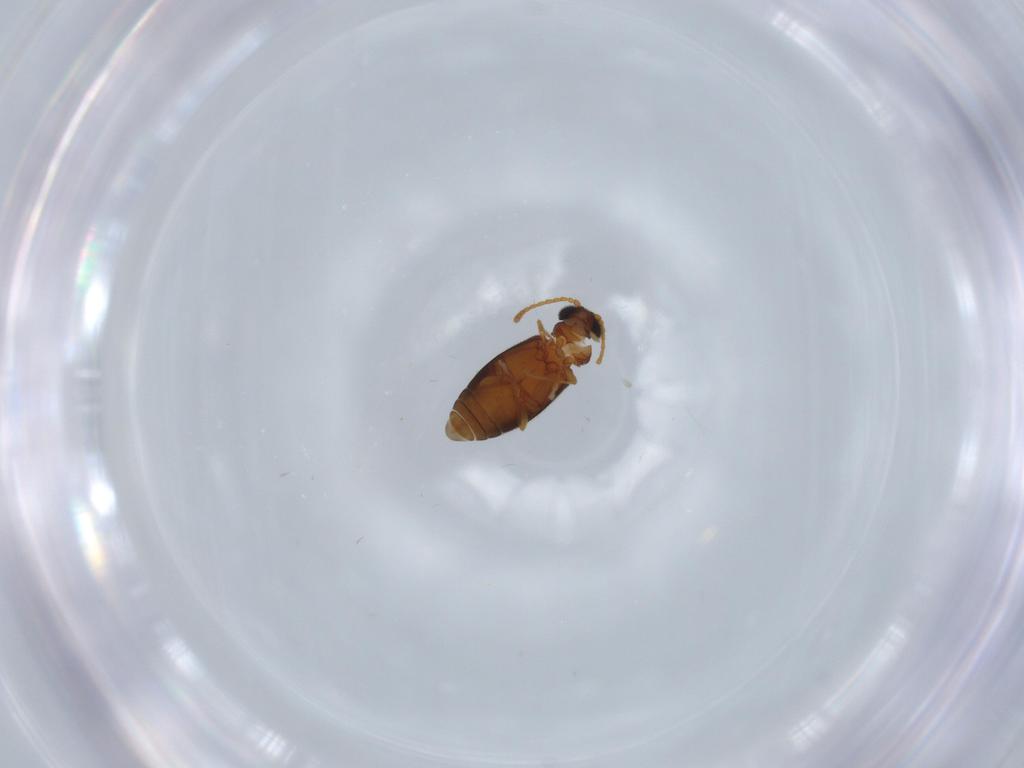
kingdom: Animalia
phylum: Arthropoda
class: Insecta
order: Coleoptera
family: Aderidae
